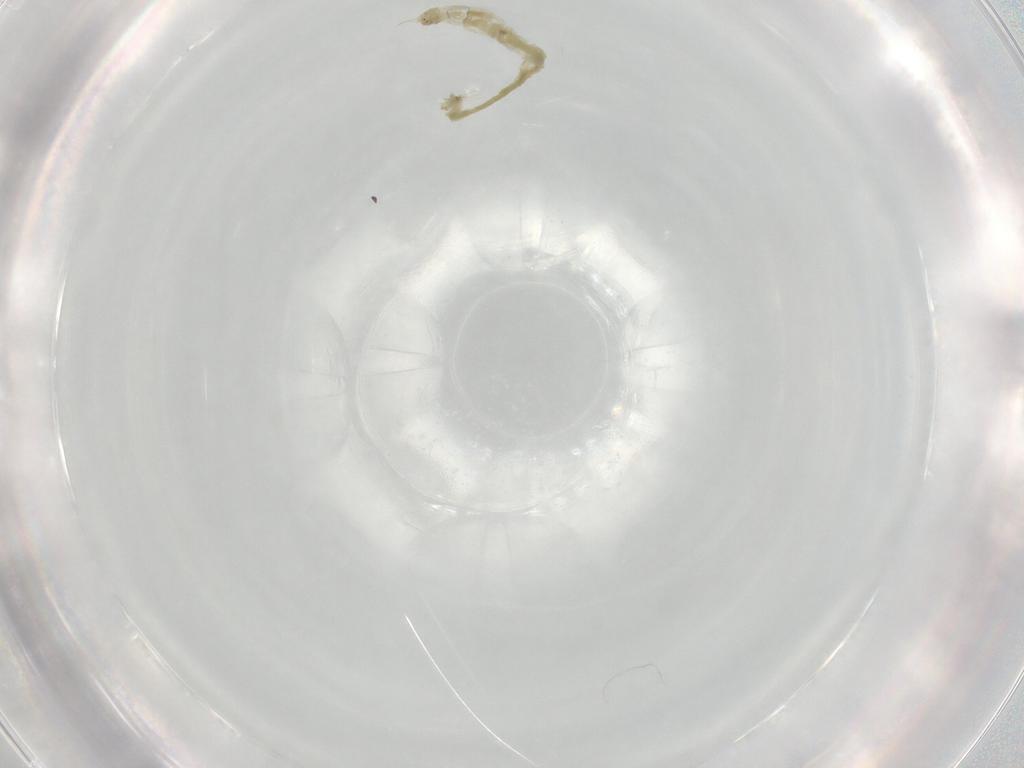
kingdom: Animalia
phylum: Arthropoda
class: Insecta
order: Diptera
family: Chironomidae
